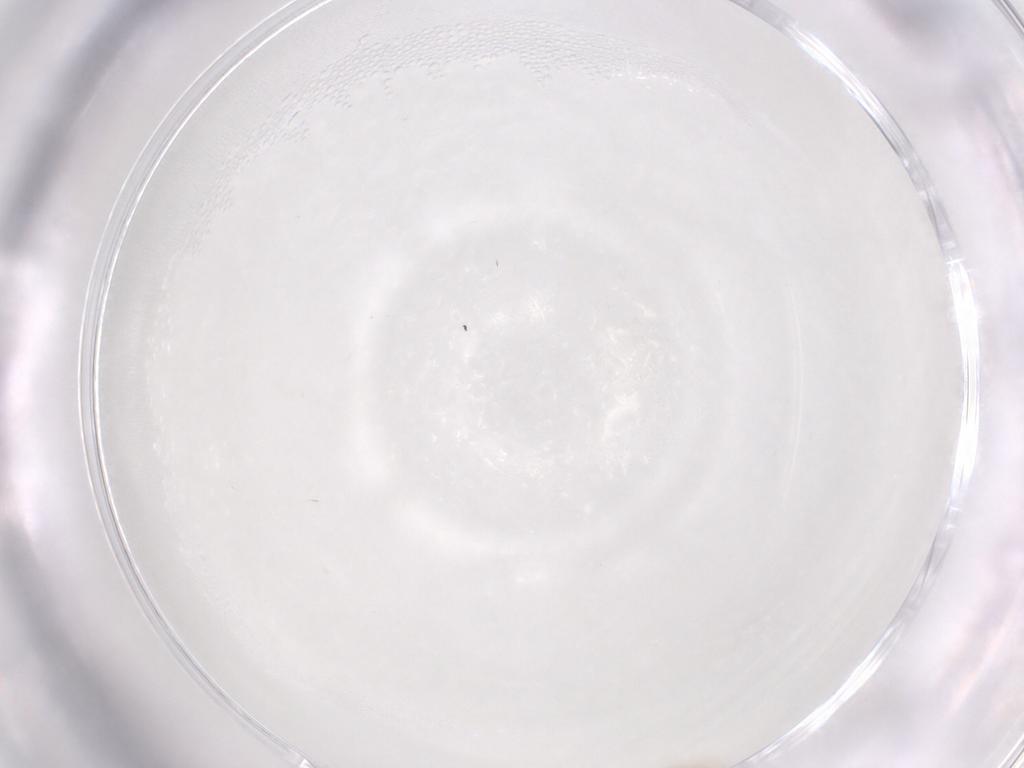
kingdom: Animalia
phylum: Arthropoda
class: Insecta
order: Diptera
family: Cecidomyiidae
